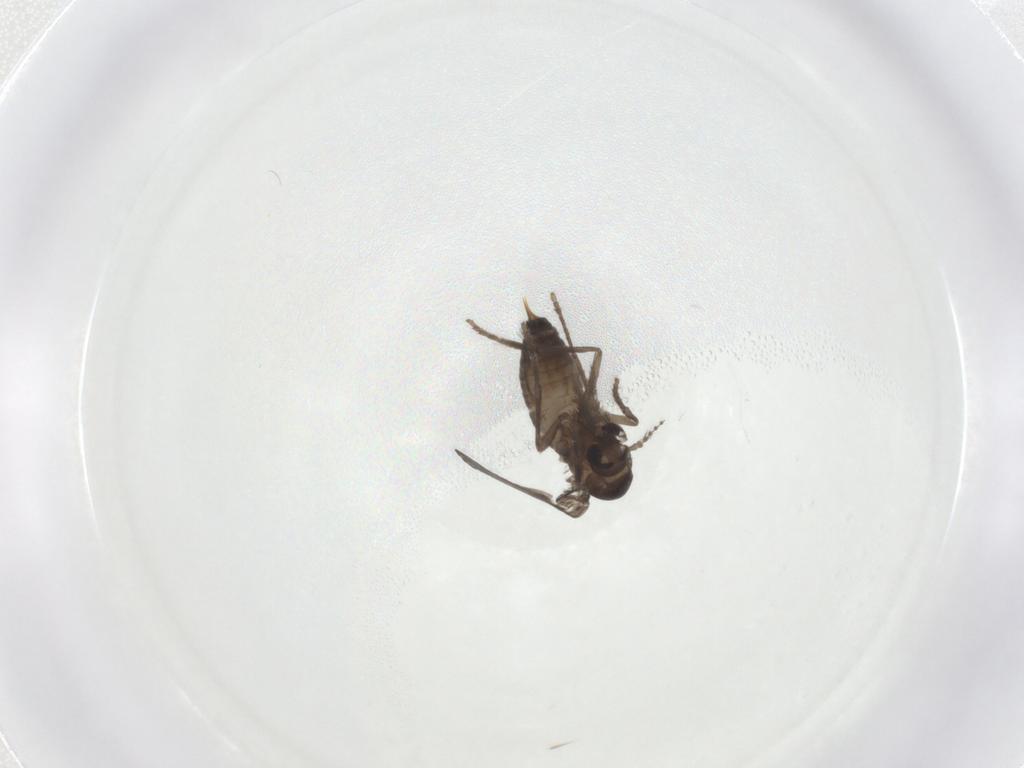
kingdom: Animalia
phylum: Arthropoda
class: Insecta
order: Diptera
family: Psychodidae
